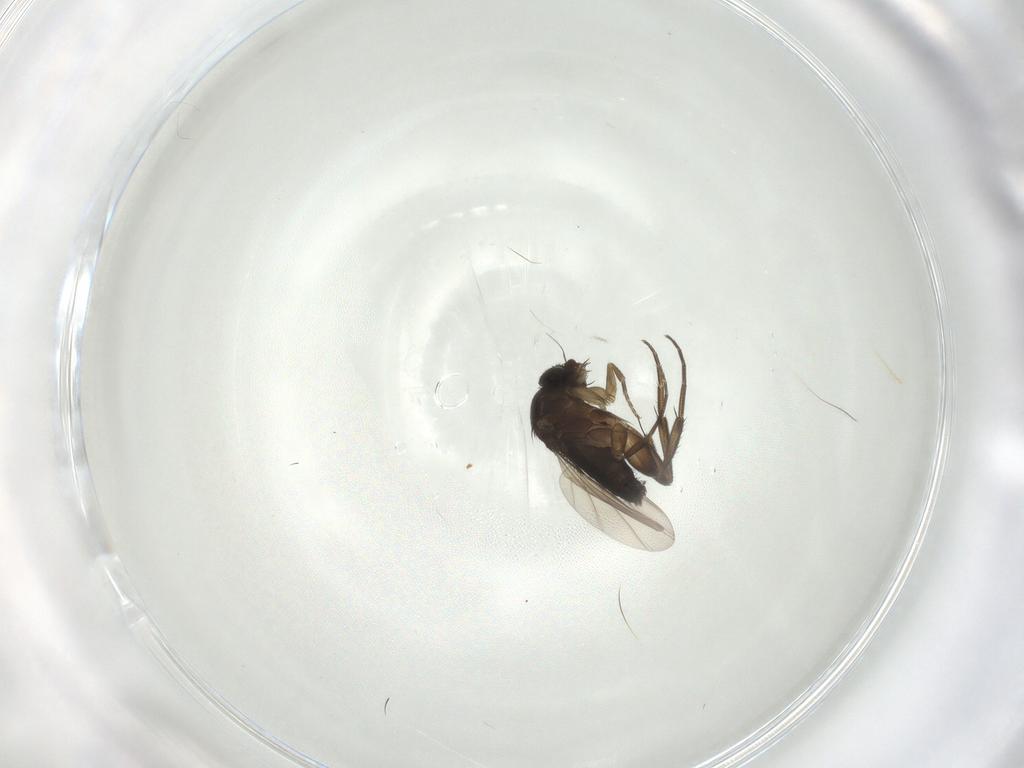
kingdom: Animalia
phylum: Arthropoda
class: Insecta
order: Diptera
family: Phoridae
